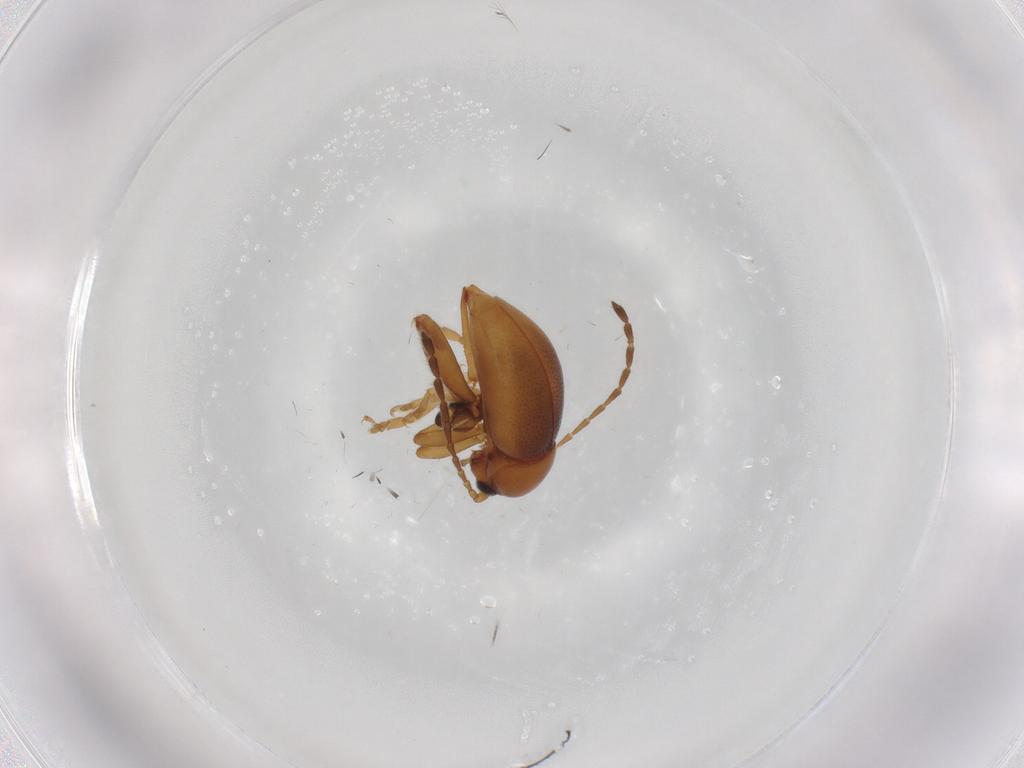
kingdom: Animalia
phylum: Arthropoda
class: Insecta
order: Coleoptera
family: Chrysomelidae
